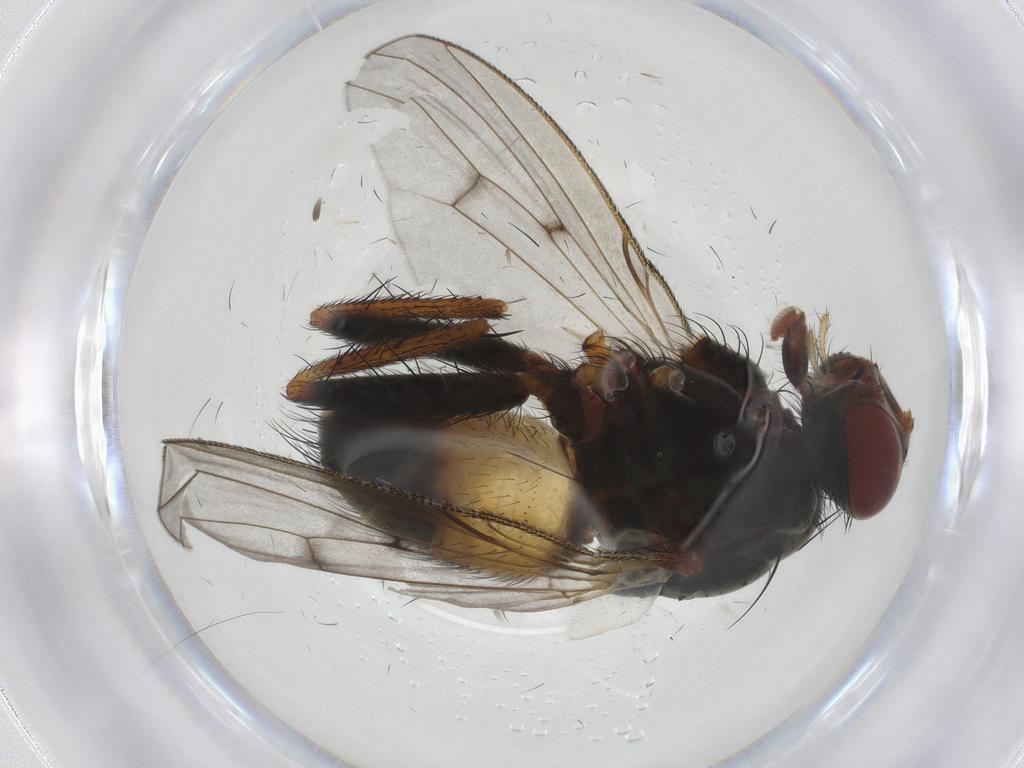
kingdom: Animalia
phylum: Arthropoda
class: Insecta
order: Diptera
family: Muscidae
